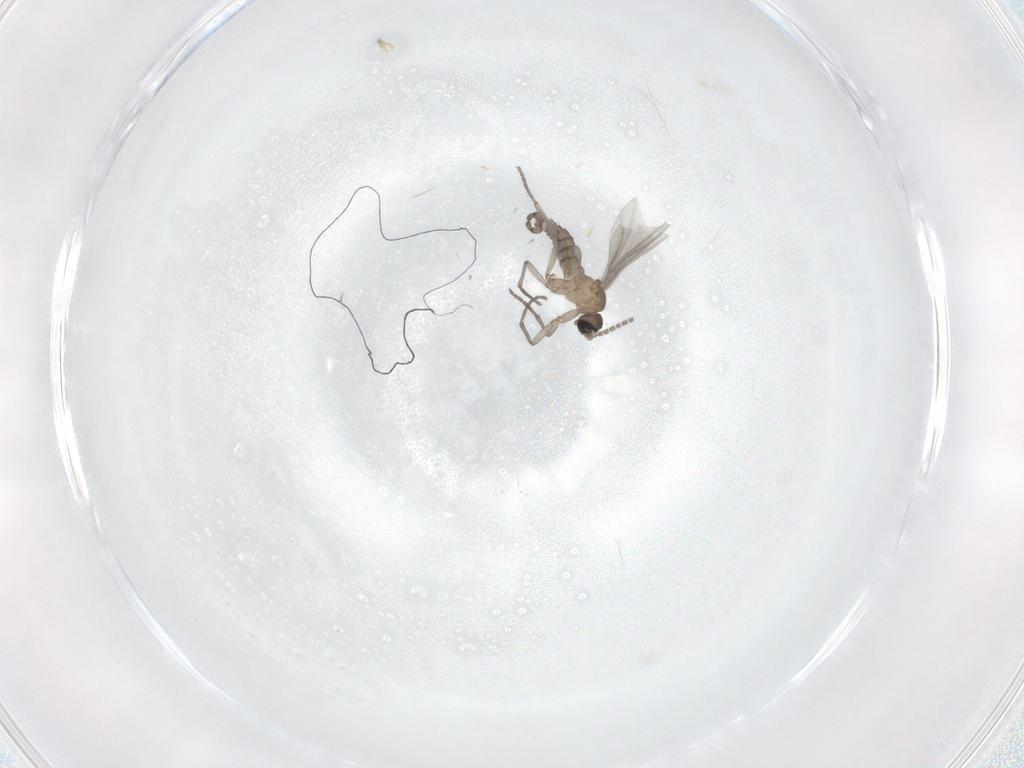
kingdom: Animalia
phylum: Arthropoda
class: Insecta
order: Diptera
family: Sciaridae
